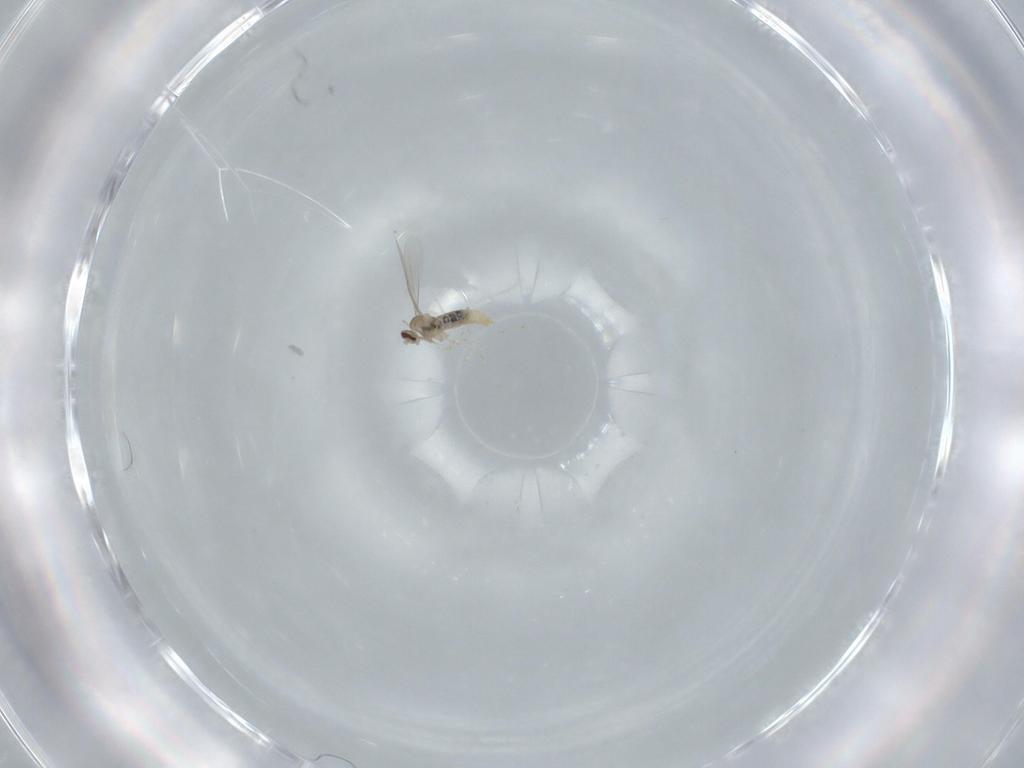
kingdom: Animalia
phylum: Arthropoda
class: Insecta
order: Diptera
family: Cecidomyiidae
